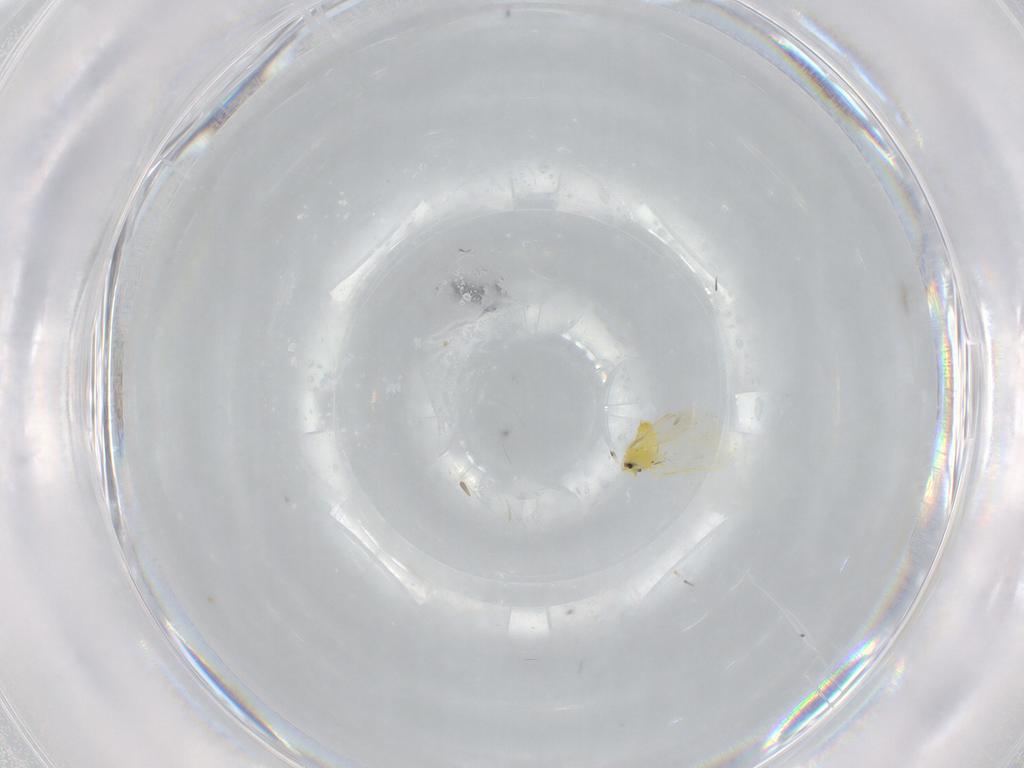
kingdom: Animalia
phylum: Arthropoda
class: Insecta
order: Hemiptera
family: Aleyrodidae
